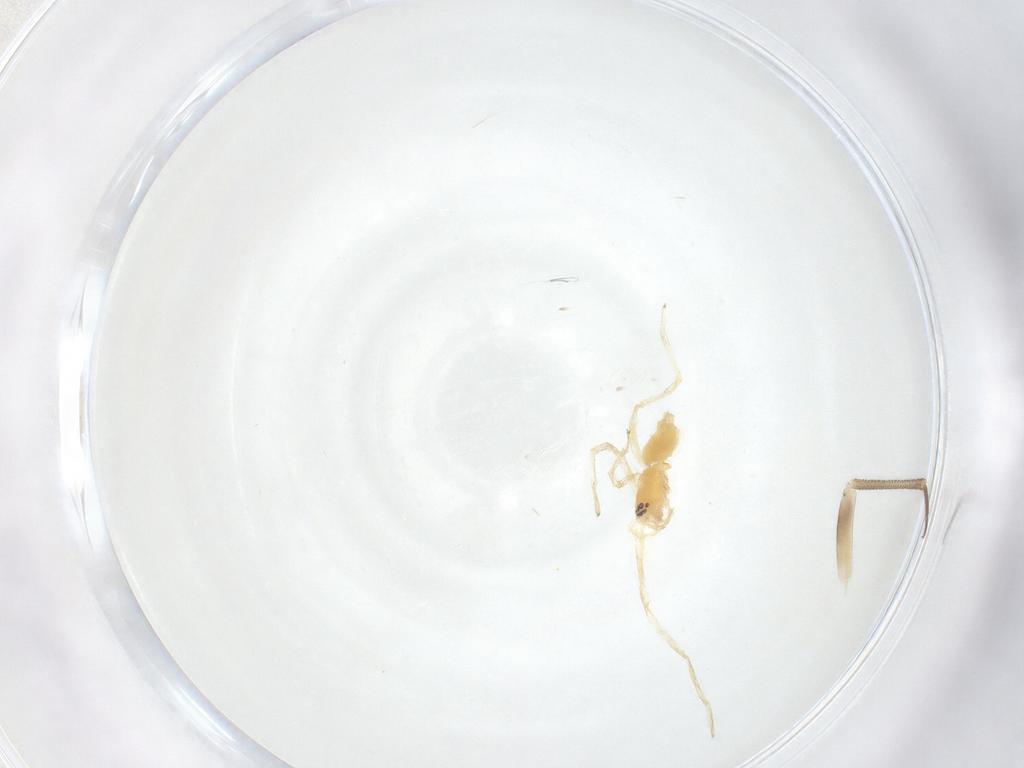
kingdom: Animalia
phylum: Arthropoda
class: Arachnida
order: Araneae
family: Anyphaenidae
